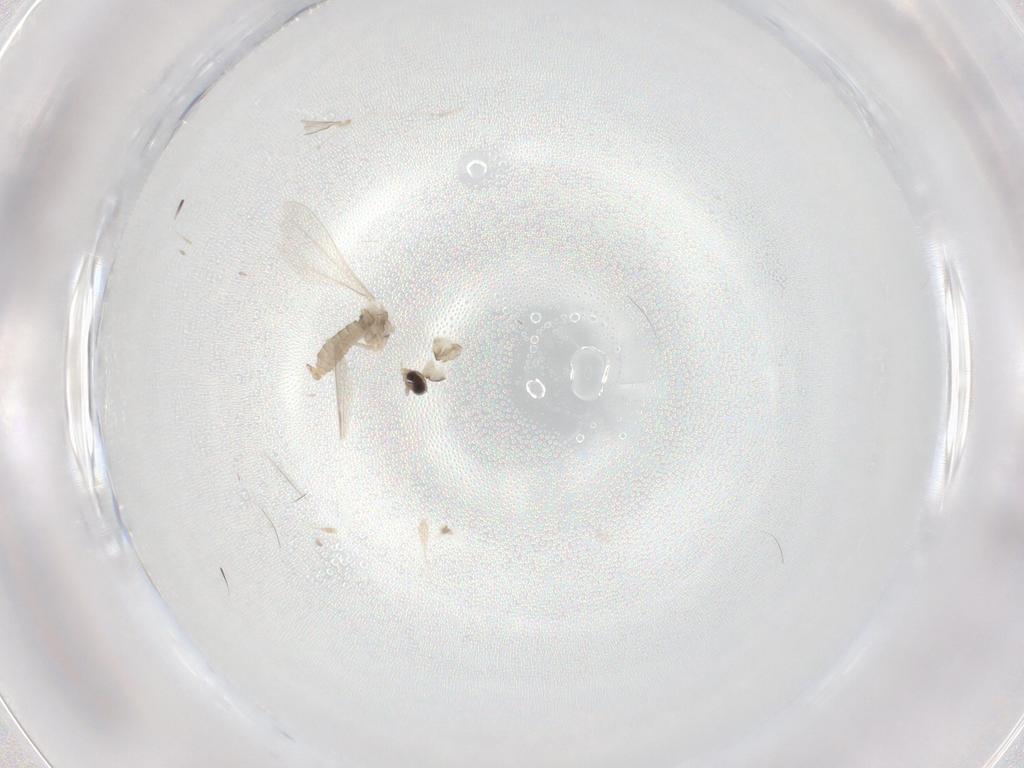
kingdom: Animalia
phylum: Arthropoda
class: Insecta
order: Diptera
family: Cecidomyiidae
